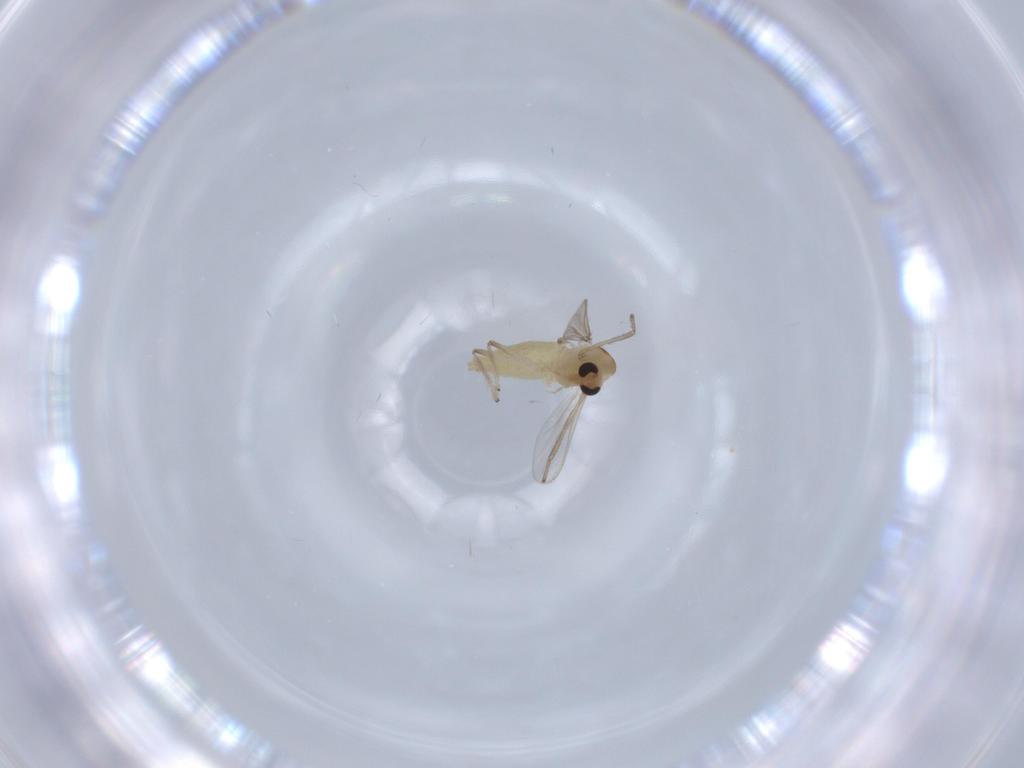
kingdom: Animalia
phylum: Arthropoda
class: Insecta
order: Diptera
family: Chironomidae
